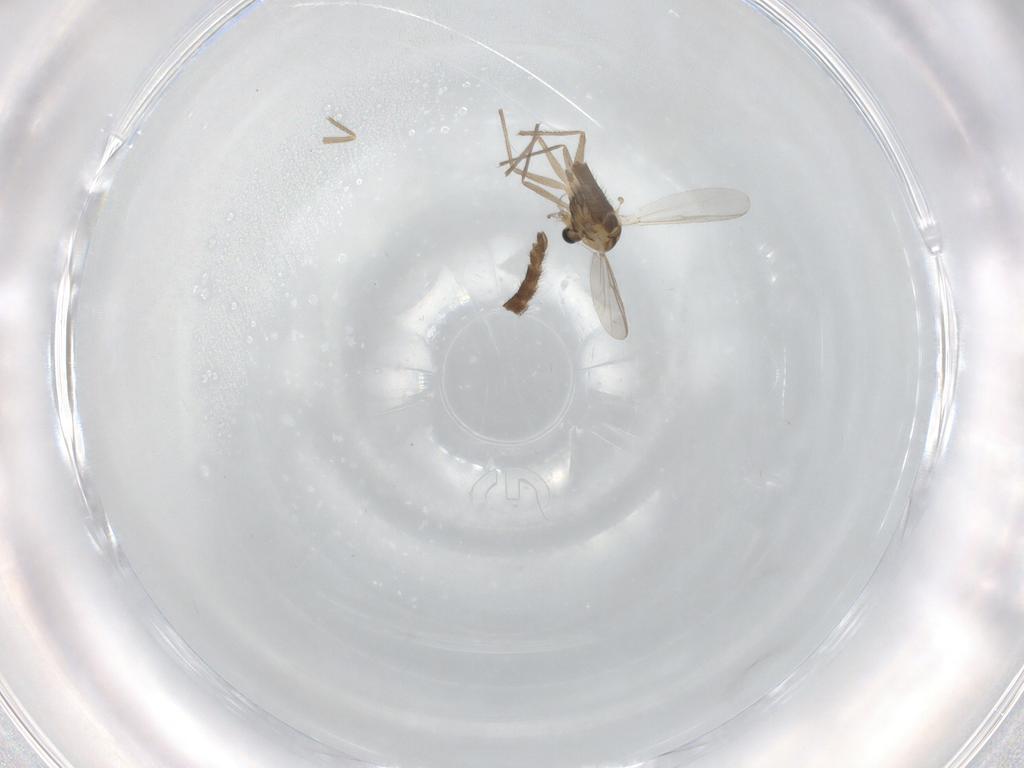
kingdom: Animalia
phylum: Arthropoda
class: Insecta
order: Diptera
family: Chironomidae
